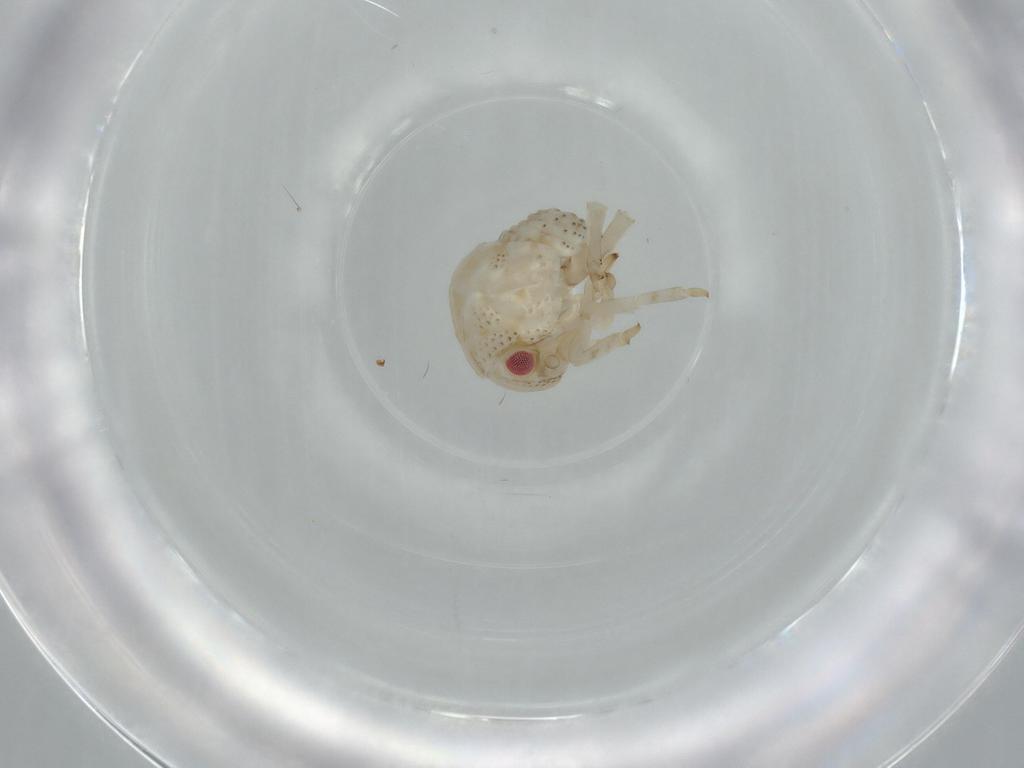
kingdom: Animalia
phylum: Arthropoda
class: Insecta
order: Hemiptera
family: Acanaloniidae
